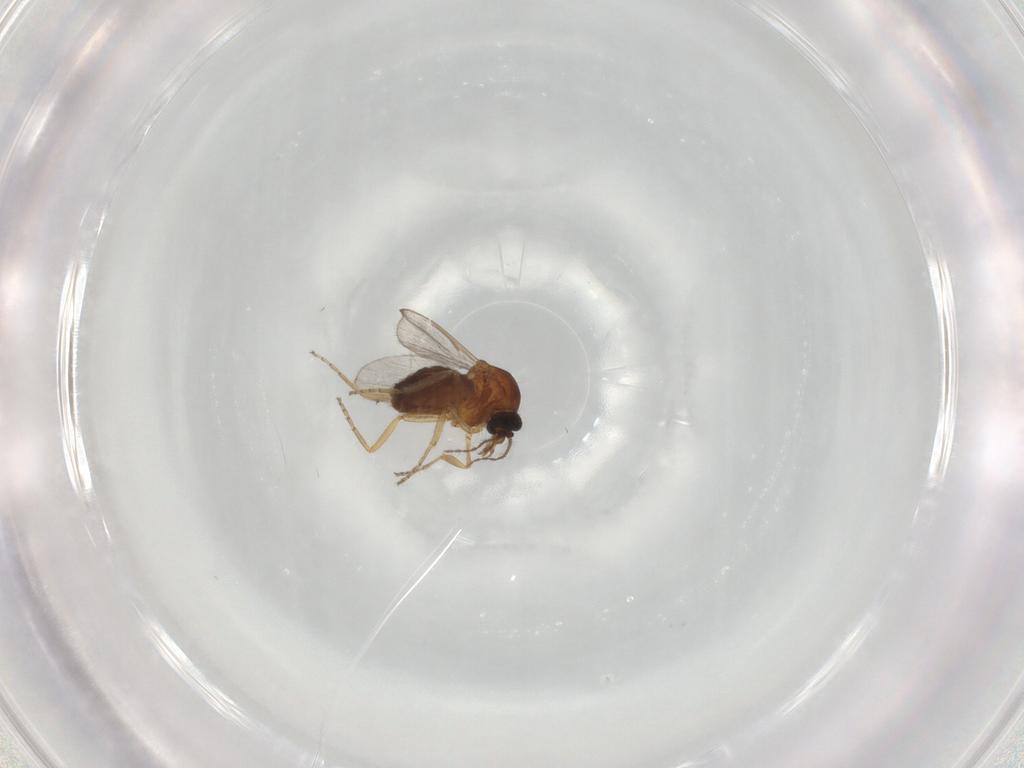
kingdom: Animalia
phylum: Arthropoda
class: Insecta
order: Diptera
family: Ceratopogonidae
